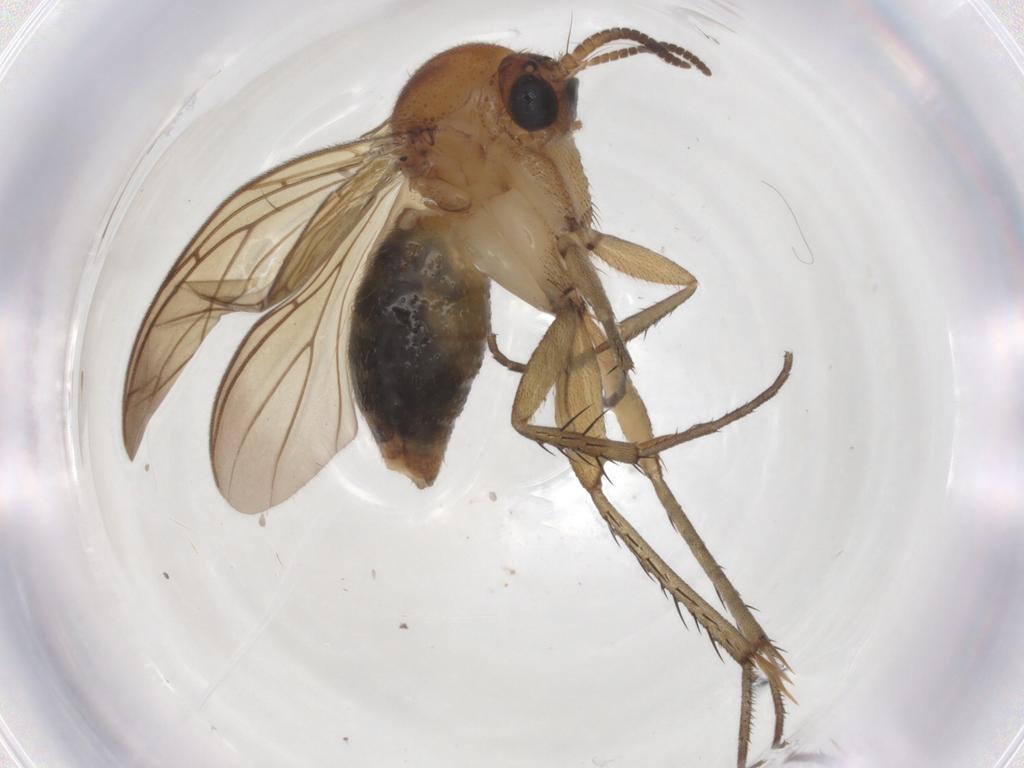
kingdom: Animalia
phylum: Arthropoda
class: Insecta
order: Diptera
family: Mycetophilidae
